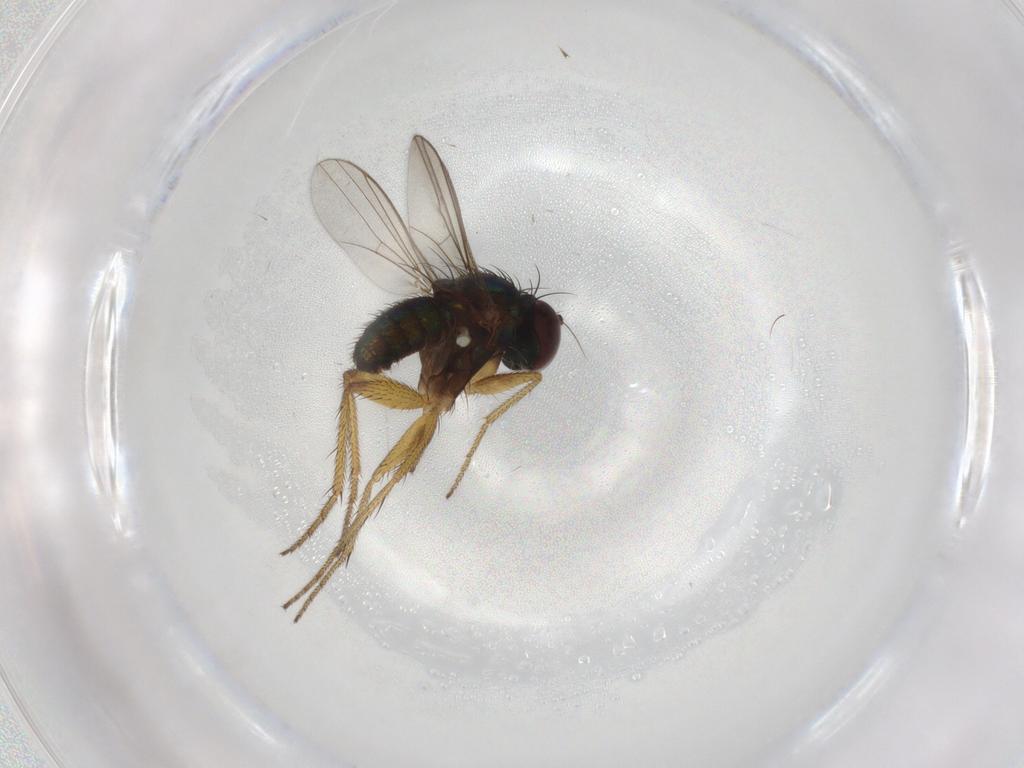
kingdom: Animalia
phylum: Arthropoda
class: Insecta
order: Diptera
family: Dolichopodidae
